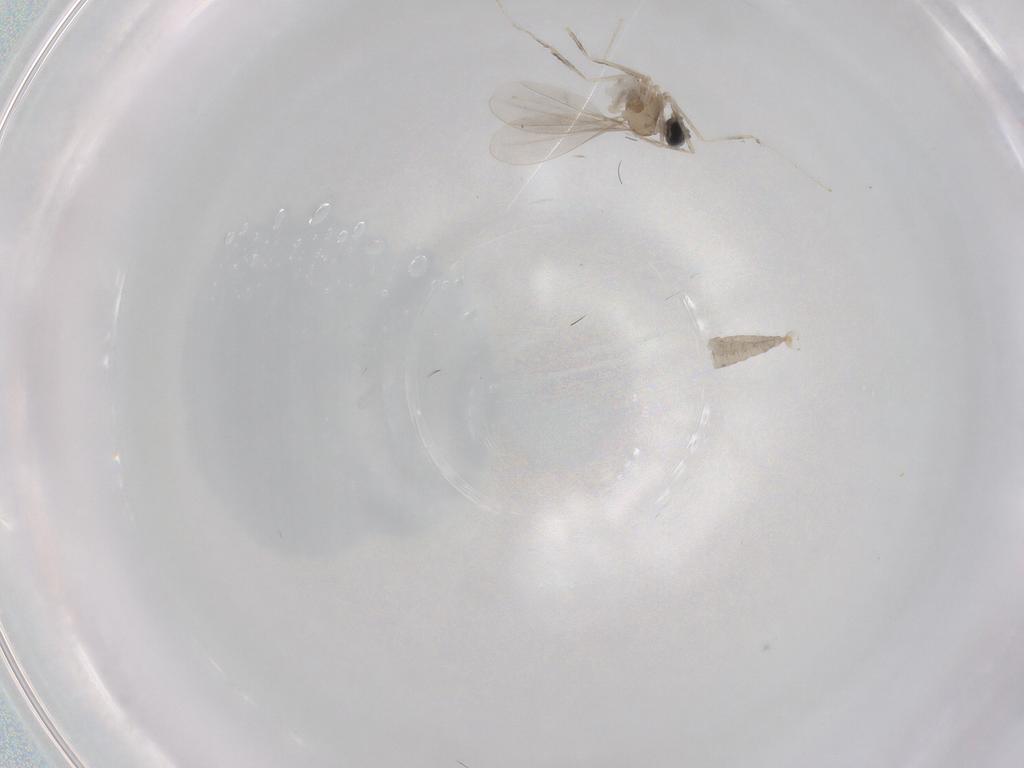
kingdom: Animalia
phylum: Arthropoda
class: Insecta
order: Diptera
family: Cecidomyiidae
